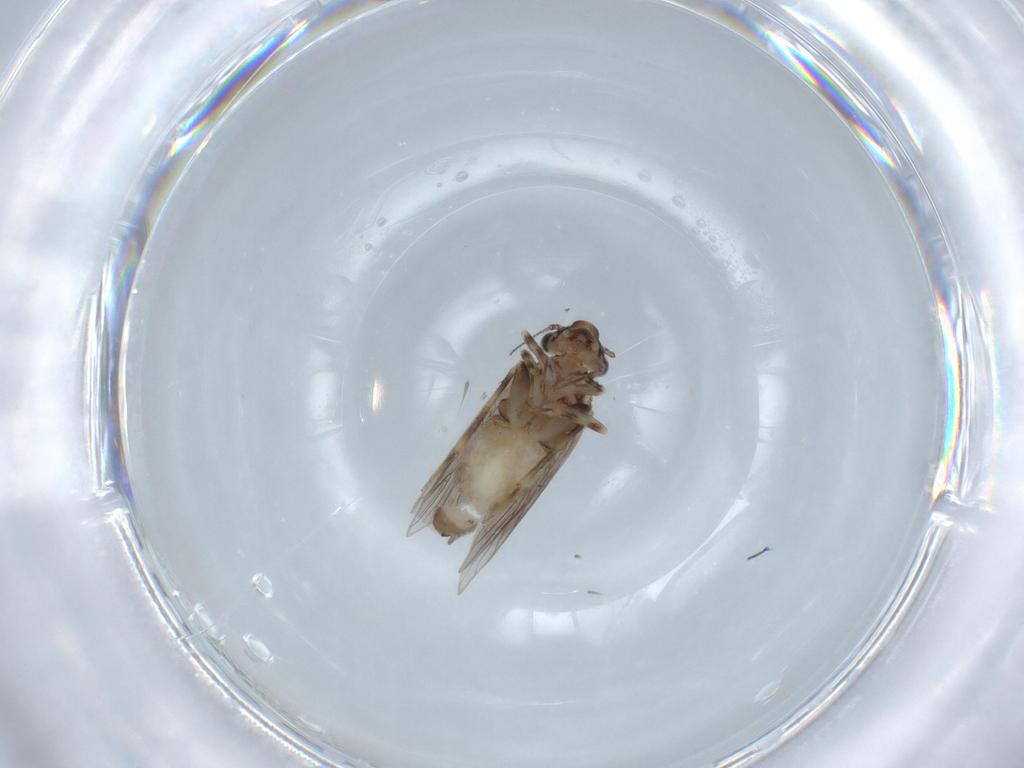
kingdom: Animalia
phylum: Arthropoda
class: Insecta
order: Psocodea
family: Lepidopsocidae
